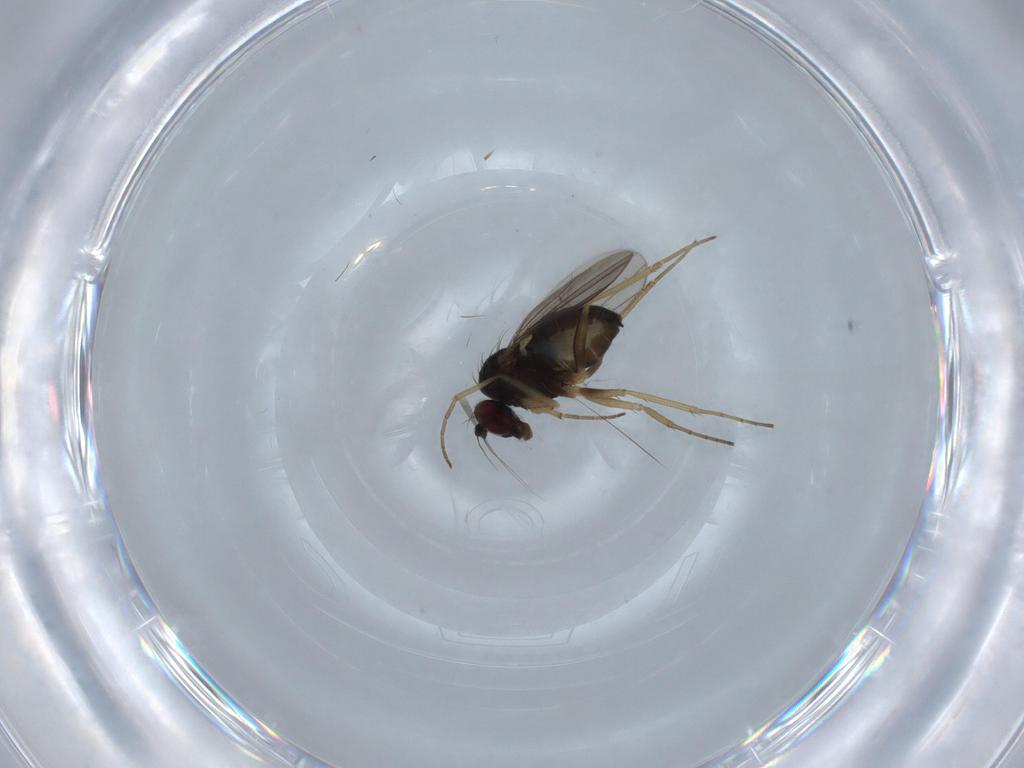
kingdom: Animalia
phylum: Arthropoda
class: Insecta
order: Diptera
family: Dolichopodidae
